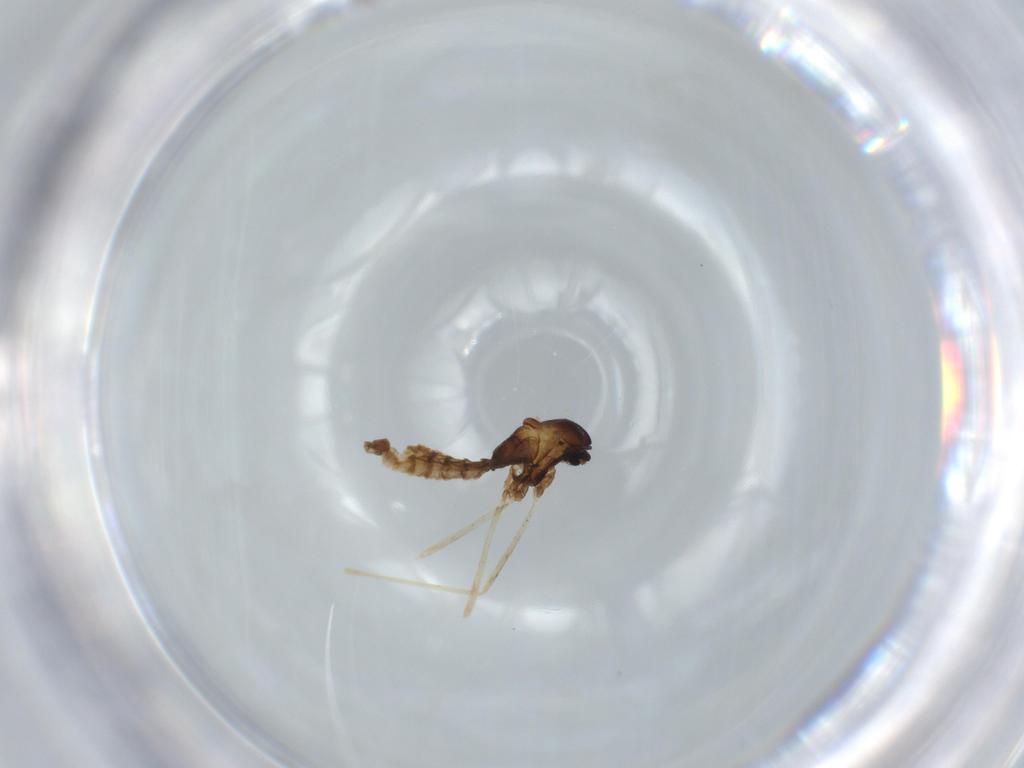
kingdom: Animalia
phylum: Arthropoda
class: Insecta
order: Diptera
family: Cecidomyiidae
